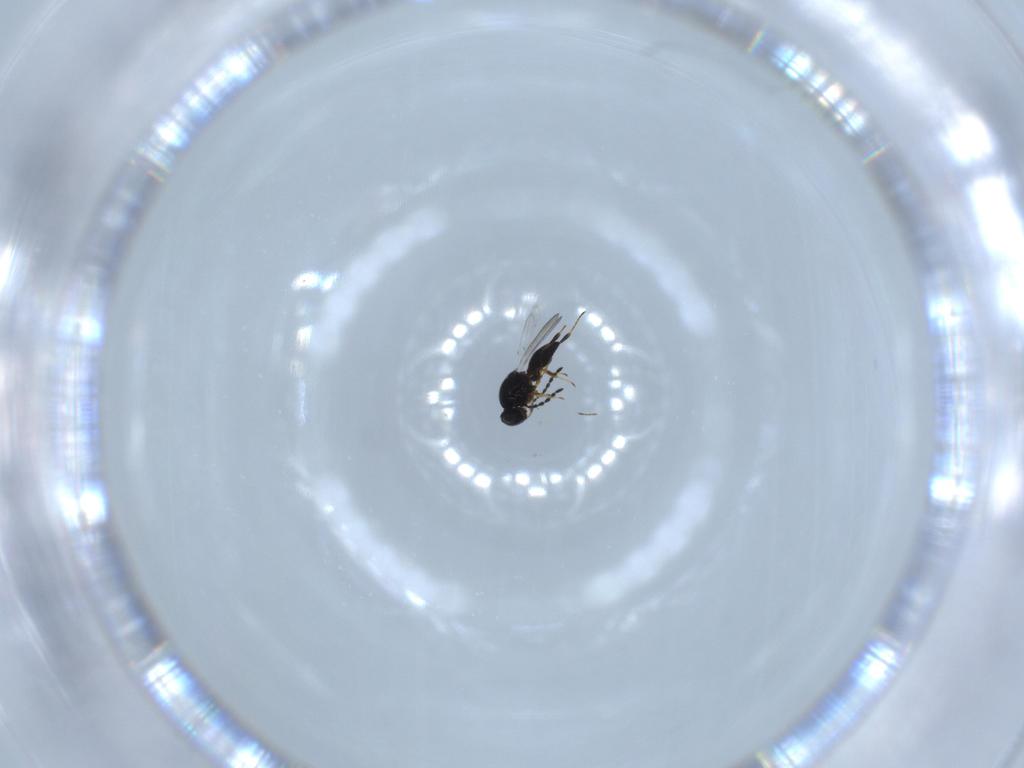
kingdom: Animalia
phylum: Arthropoda
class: Insecta
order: Hymenoptera
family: Platygastridae
